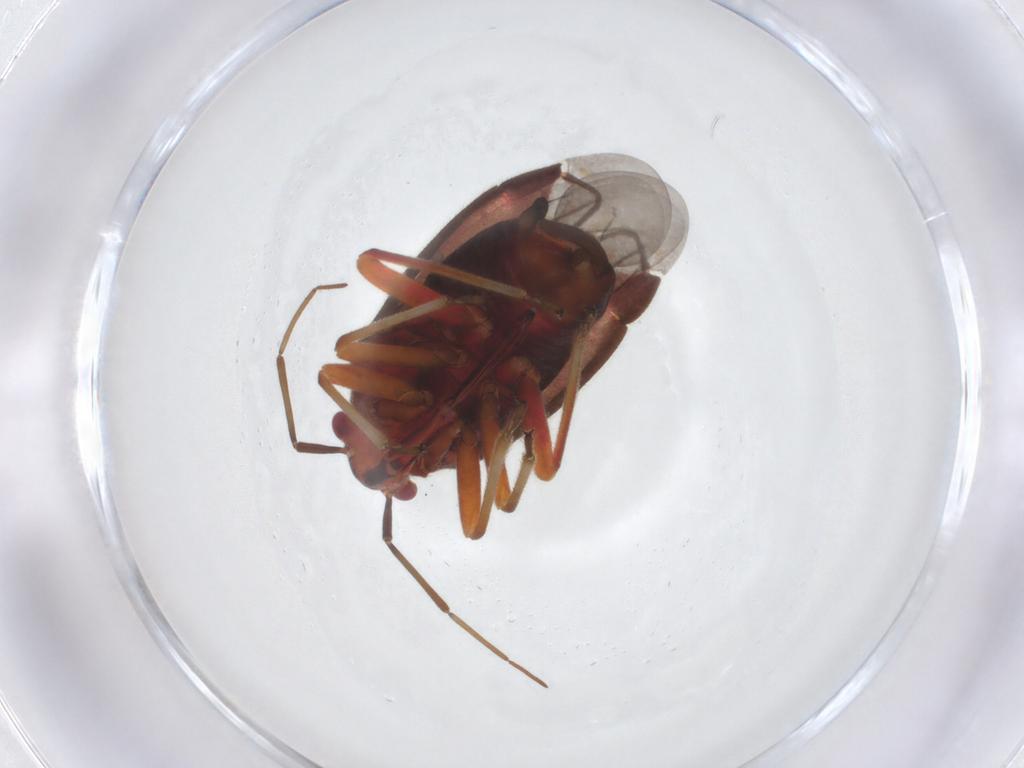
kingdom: Animalia
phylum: Arthropoda
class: Insecta
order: Hemiptera
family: Miridae
